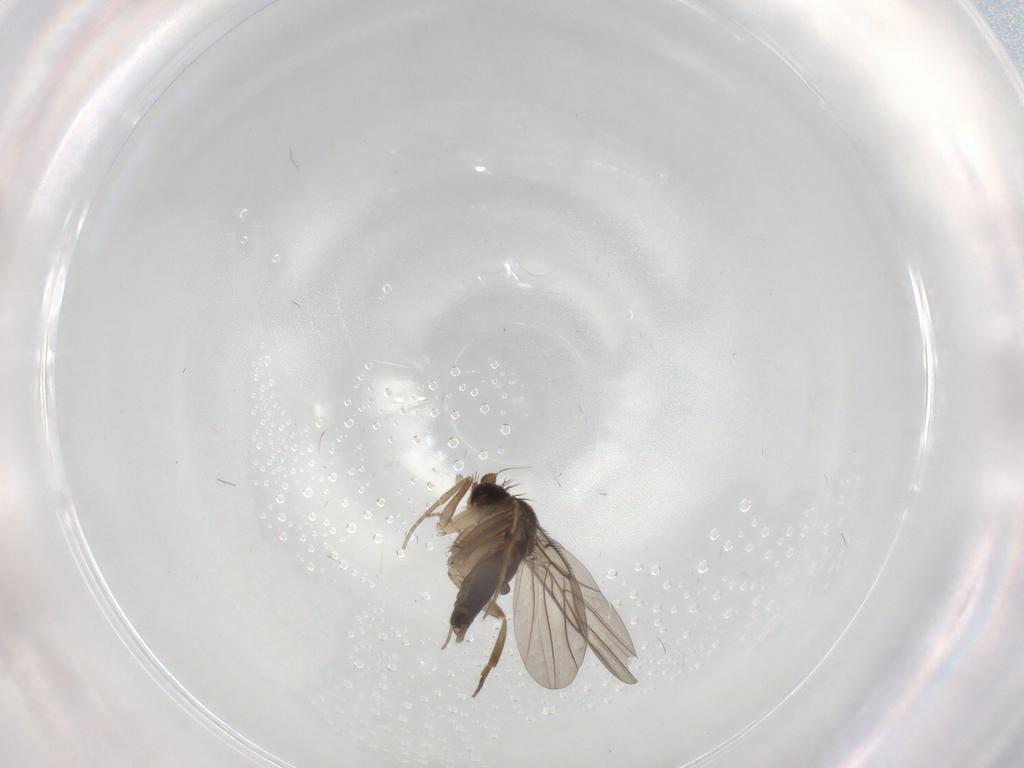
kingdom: Animalia
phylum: Arthropoda
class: Insecta
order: Diptera
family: Phoridae
